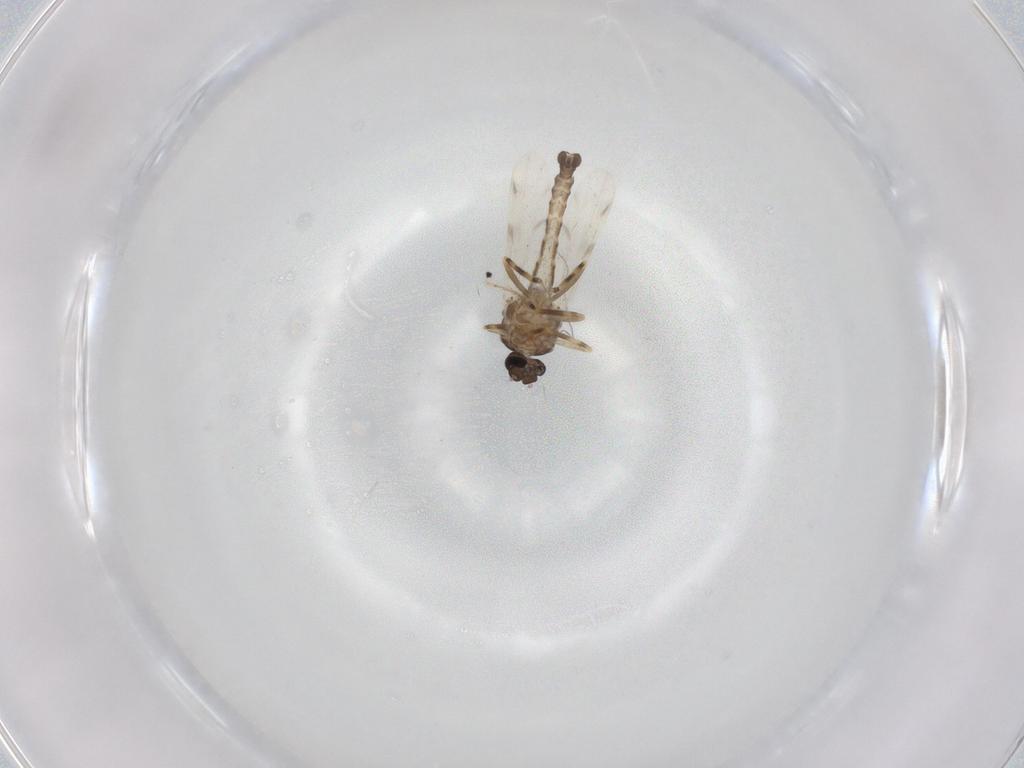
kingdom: Animalia
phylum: Arthropoda
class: Insecta
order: Diptera
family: Ceratopogonidae
